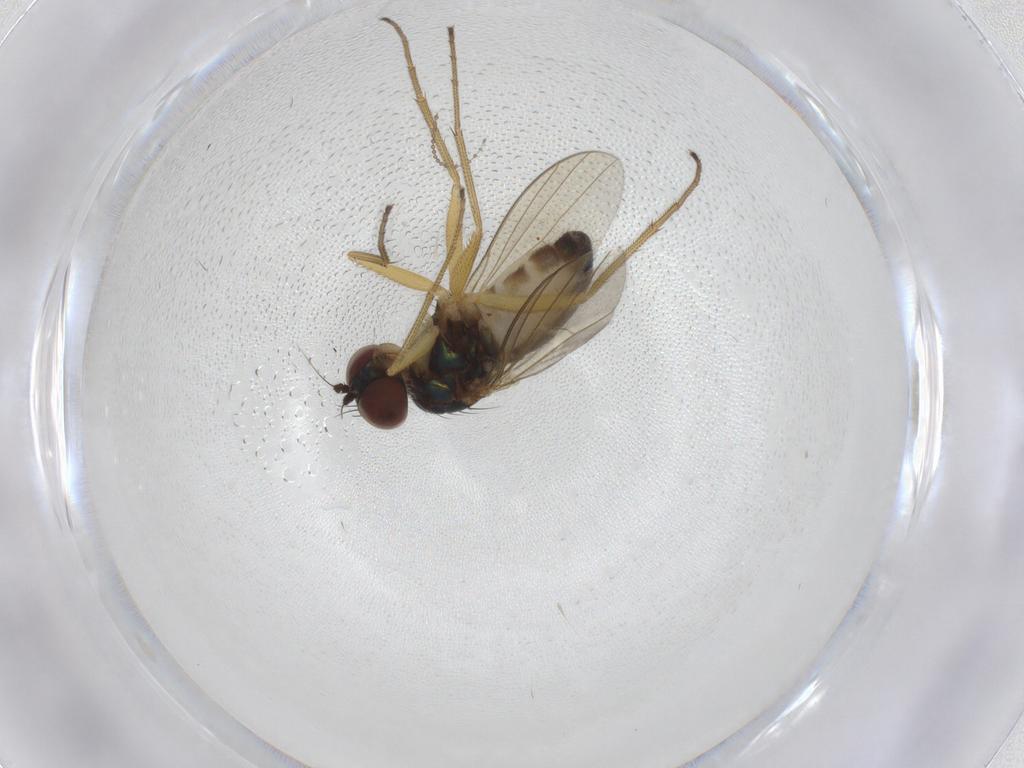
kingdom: Animalia
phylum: Arthropoda
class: Insecta
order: Diptera
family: Dolichopodidae
